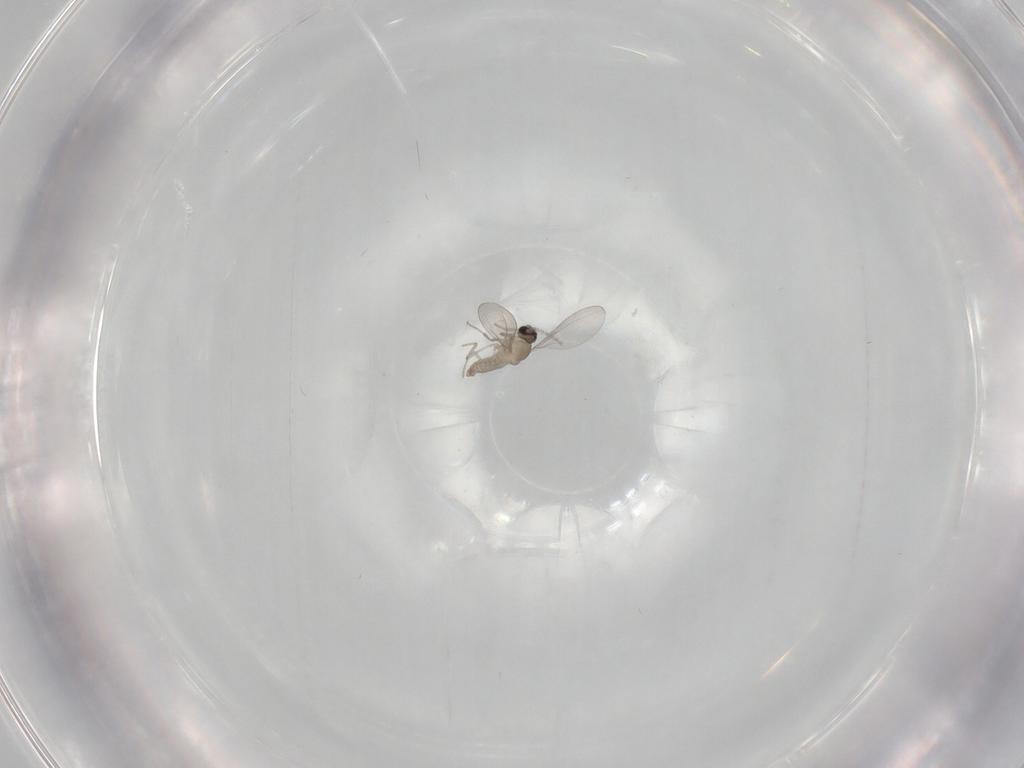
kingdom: Animalia
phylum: Arthropoda
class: Insecta
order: Diptera
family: Cecidomyiidae
